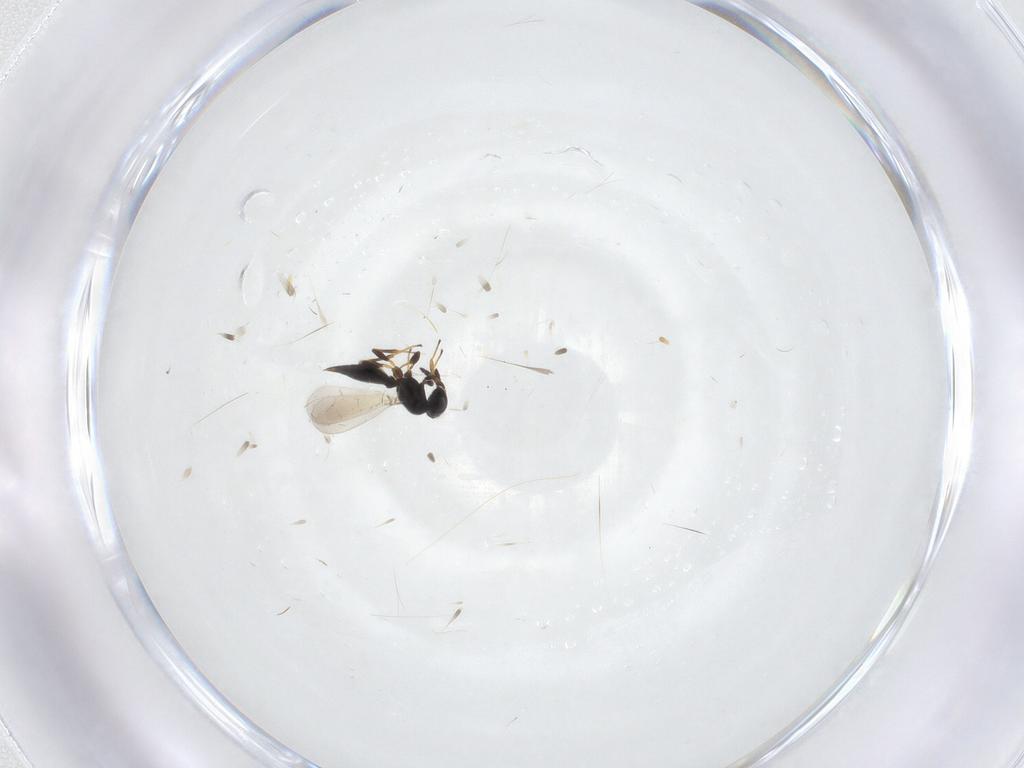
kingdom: Animalia
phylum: Arthropoda
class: Insecta
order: Hymenoptera
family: Platygastridae
